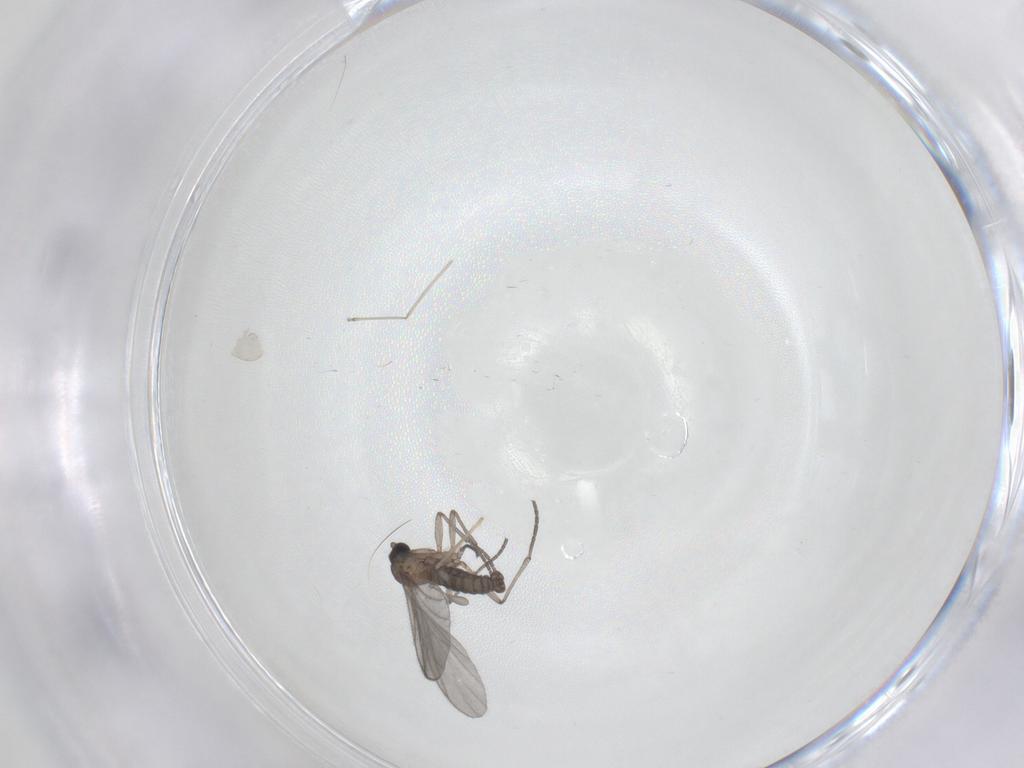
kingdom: Animalia
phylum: Arthropoda
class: Insecta
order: Diptera
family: Sciaridae
